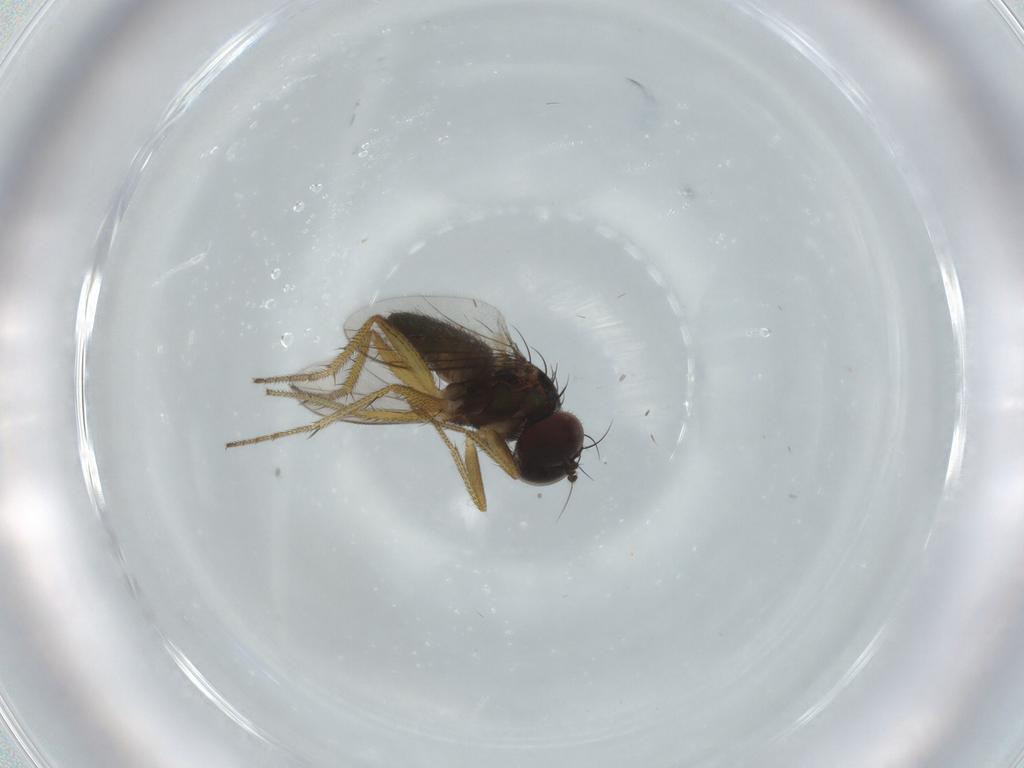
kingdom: Animalia
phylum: Arthropoda
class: Insecta
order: Diptera
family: Dolichopodidae
